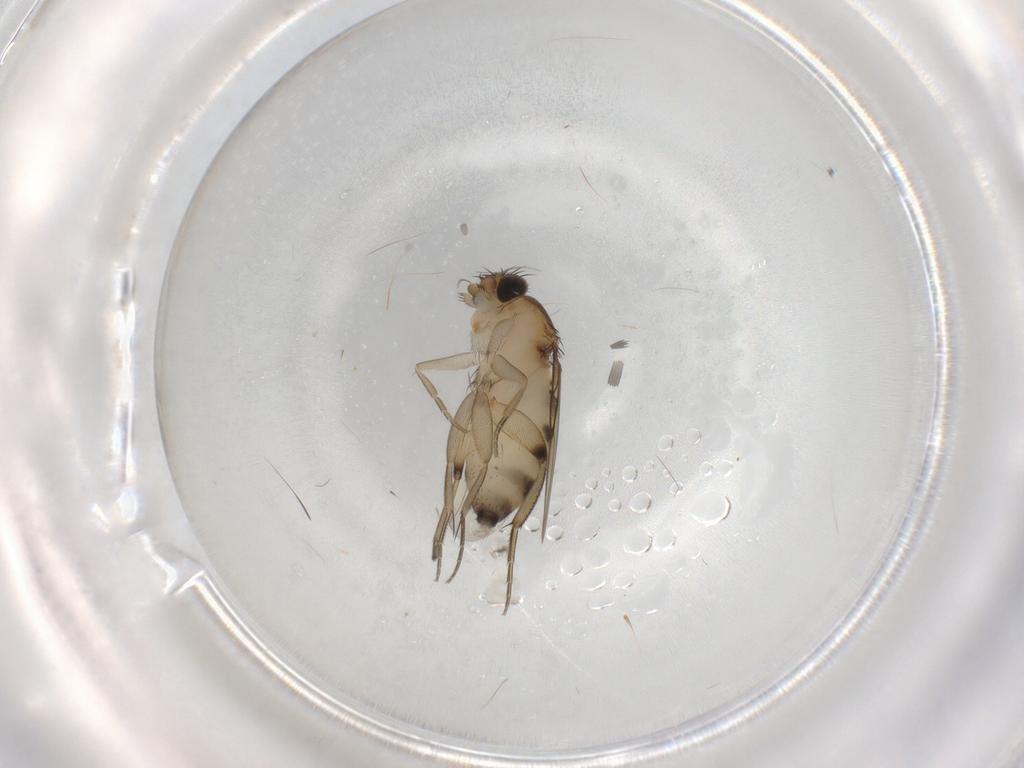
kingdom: Animalia
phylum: Arthropoda
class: Insecta
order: Diptera
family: Phoridae
